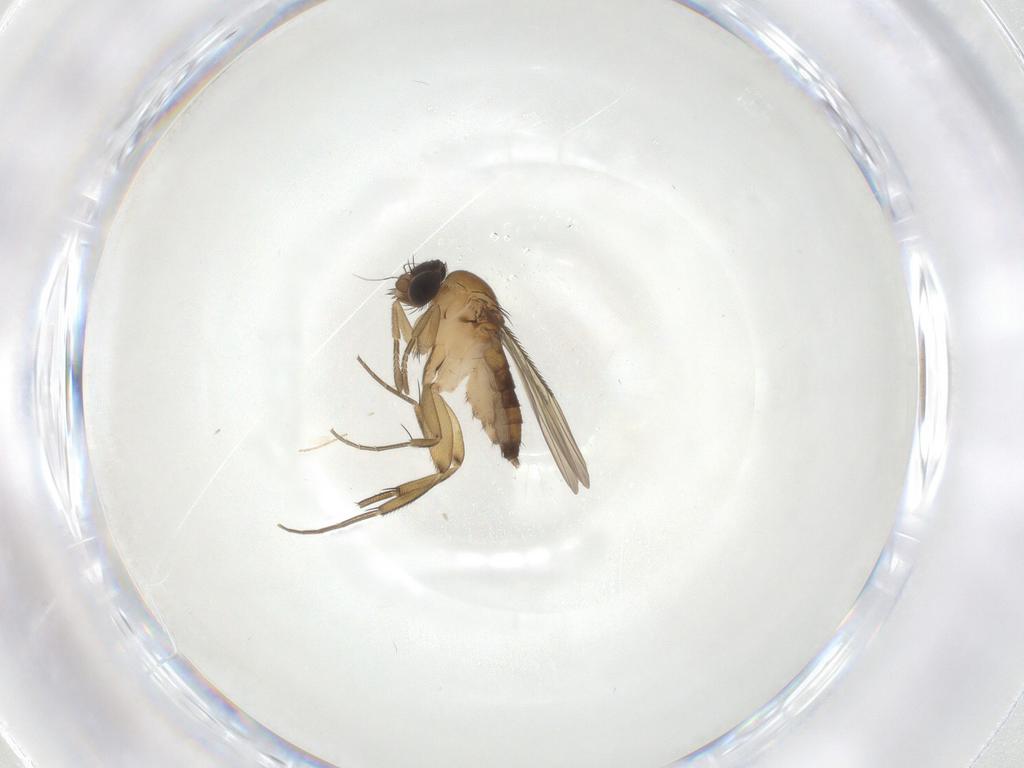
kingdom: Animalia
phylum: Arthropoda
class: Insecta
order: Diptera
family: Phoridae
